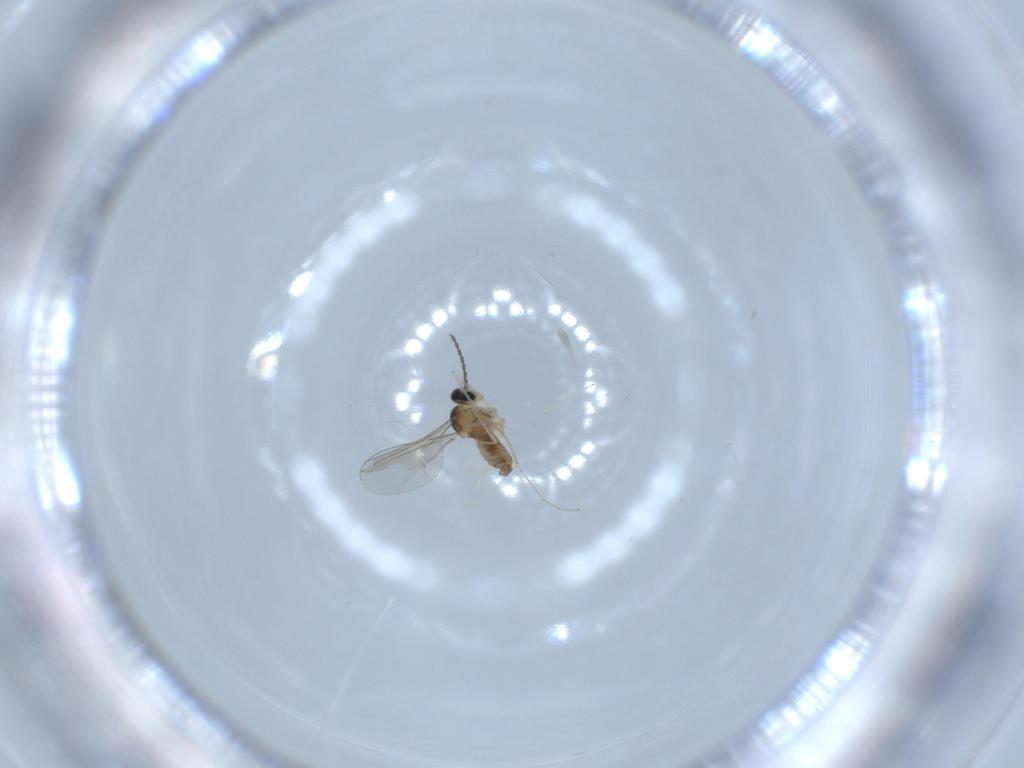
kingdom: Animalia
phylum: Arthropoda
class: Insecta
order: Diptera
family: Cecidomyiidae
